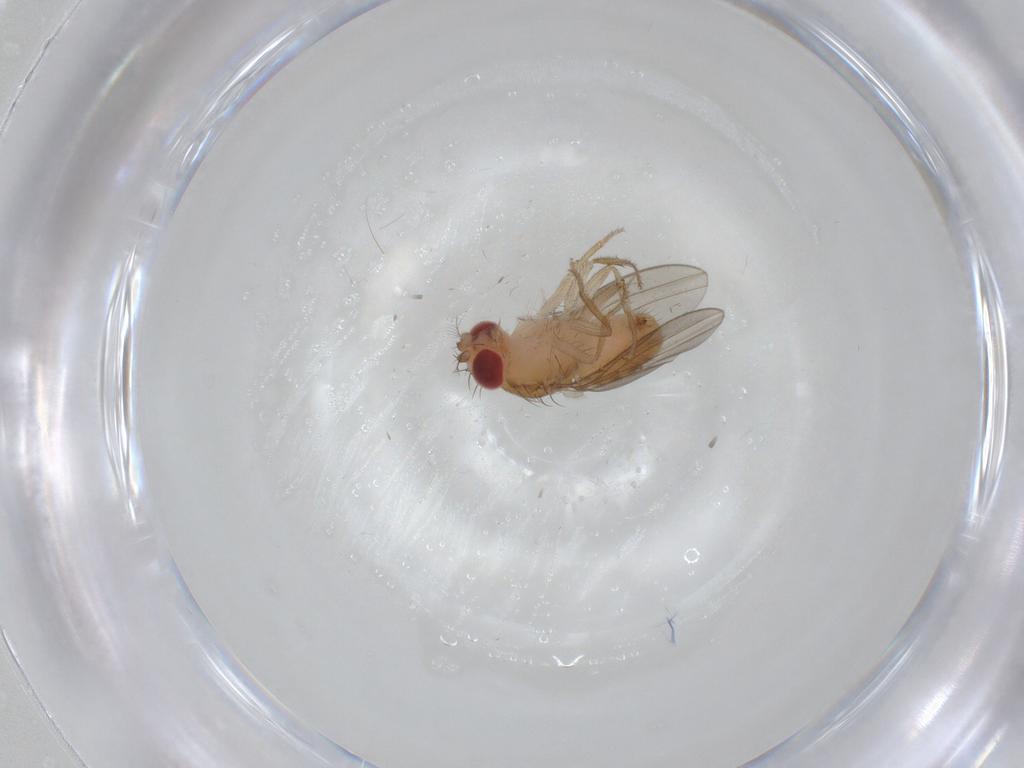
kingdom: Animalia
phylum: Arthropoda
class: Insecta
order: Diptera
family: Drosophilidae
